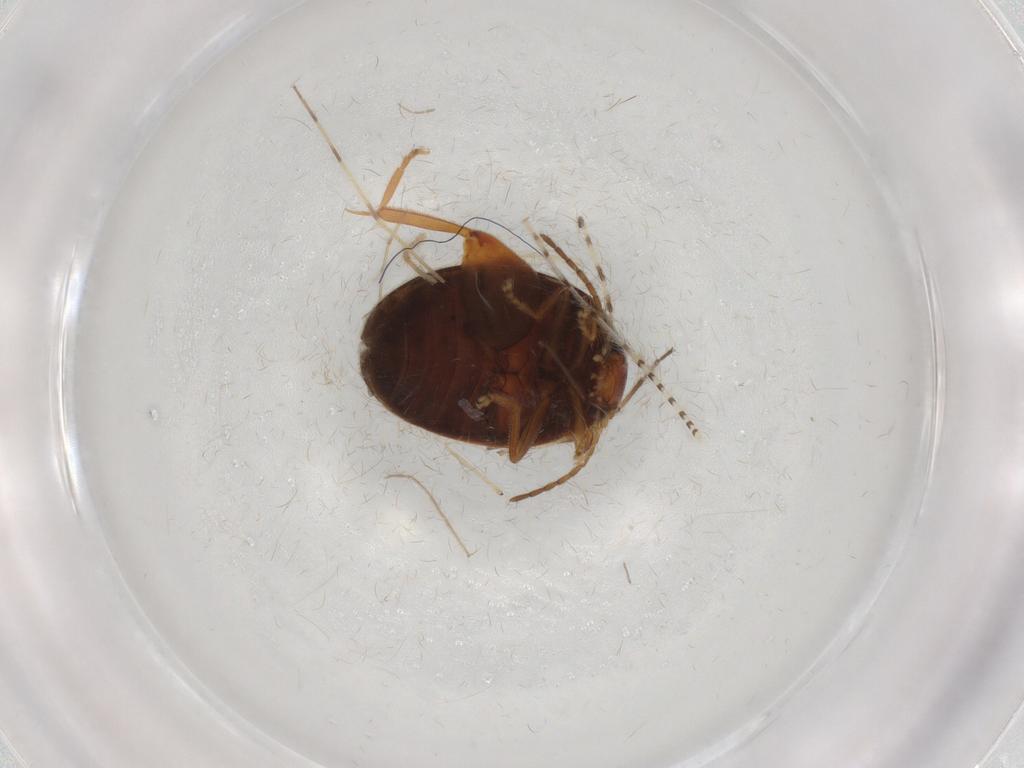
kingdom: Animalia
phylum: Arthropoda
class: Insecta
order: Coleoptera
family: Scirtidae
